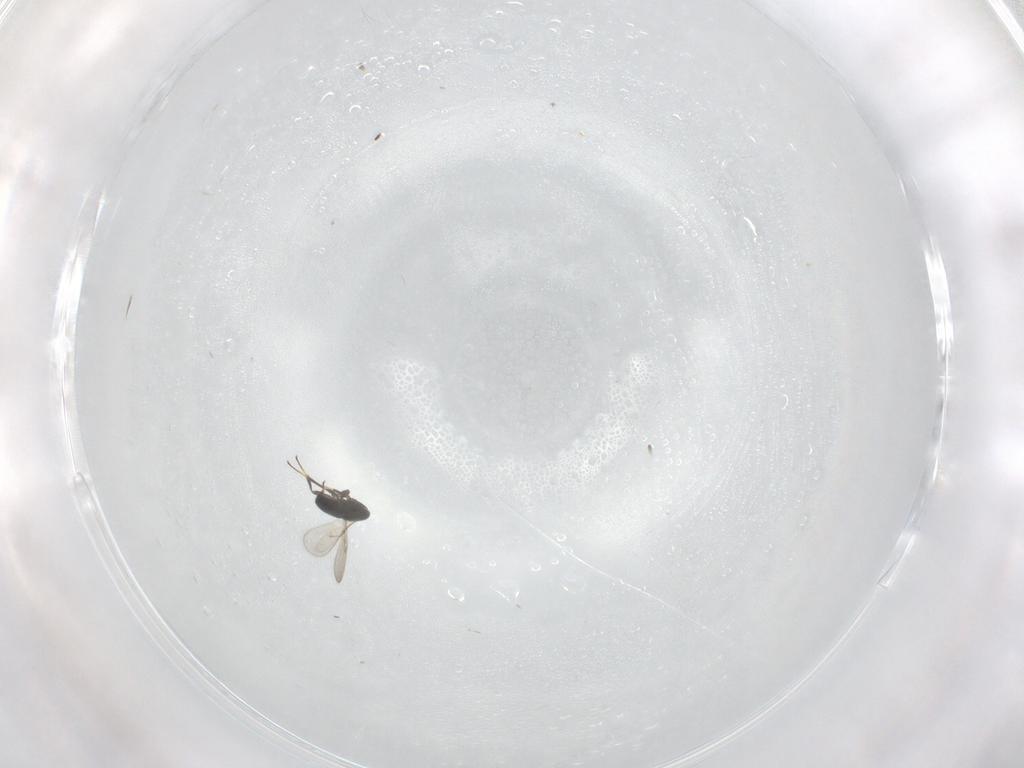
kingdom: Animalia
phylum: Arthropoda
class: Insecta
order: Hymenoptera
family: Scelionidae
